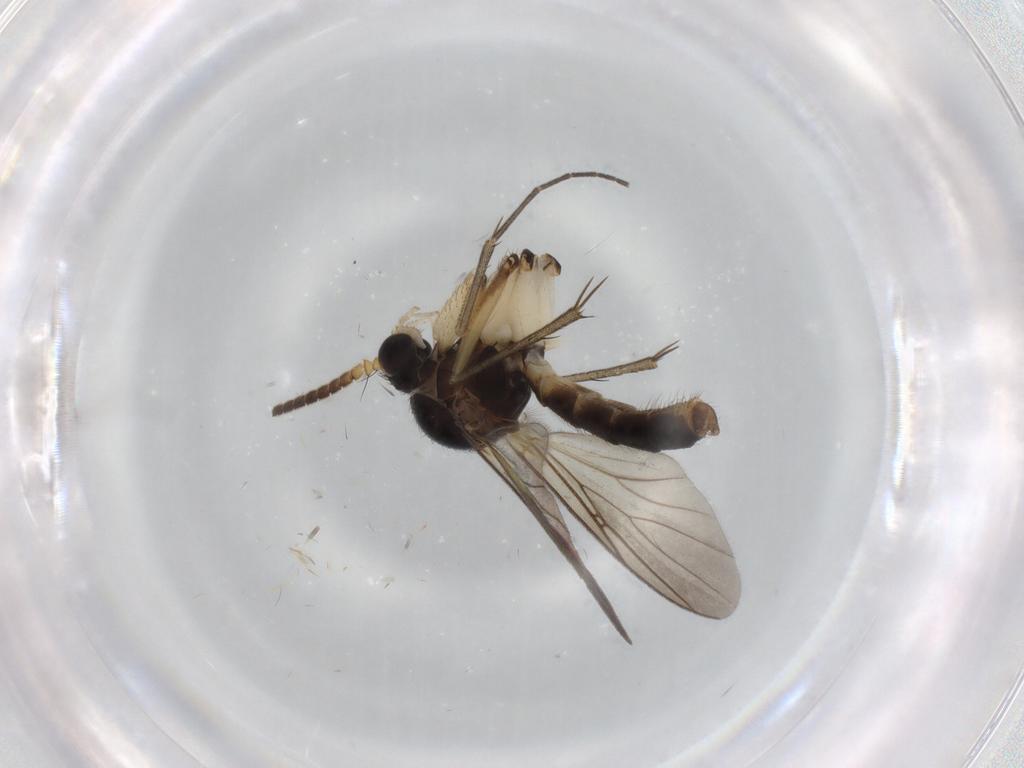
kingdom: Animalia
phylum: Arthropoda
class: Insecta
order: Diptera
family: Mycetophilidae
